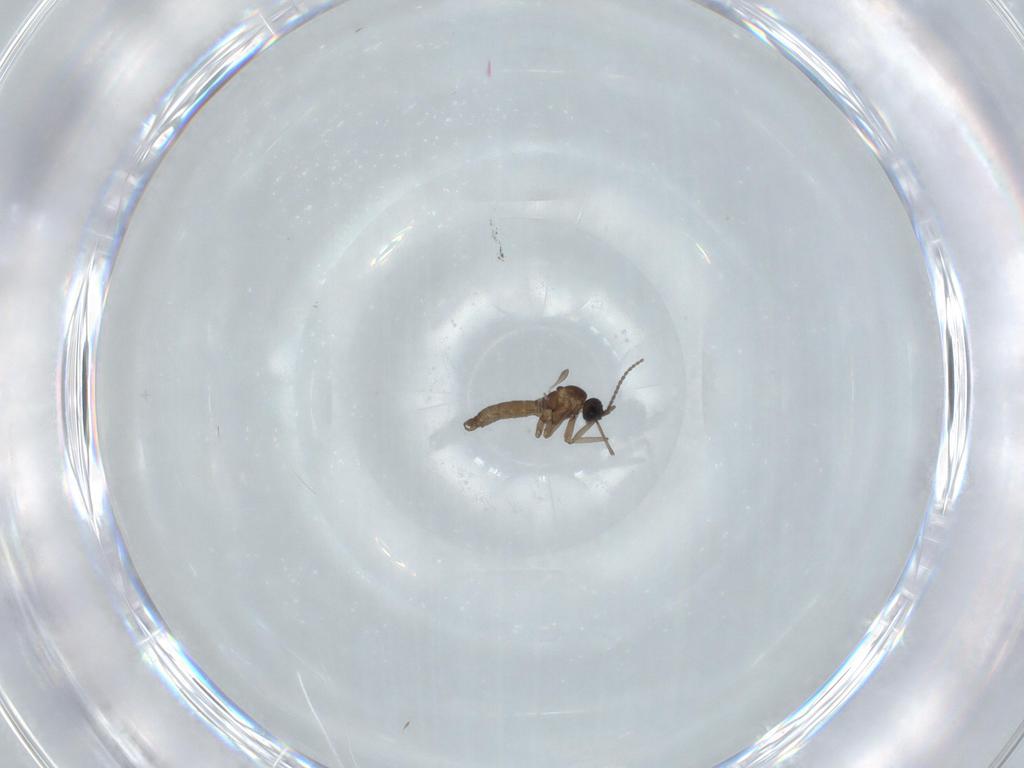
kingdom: Animalia
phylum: Arthropoda
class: Insecta
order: Diptera
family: Sciaridae
